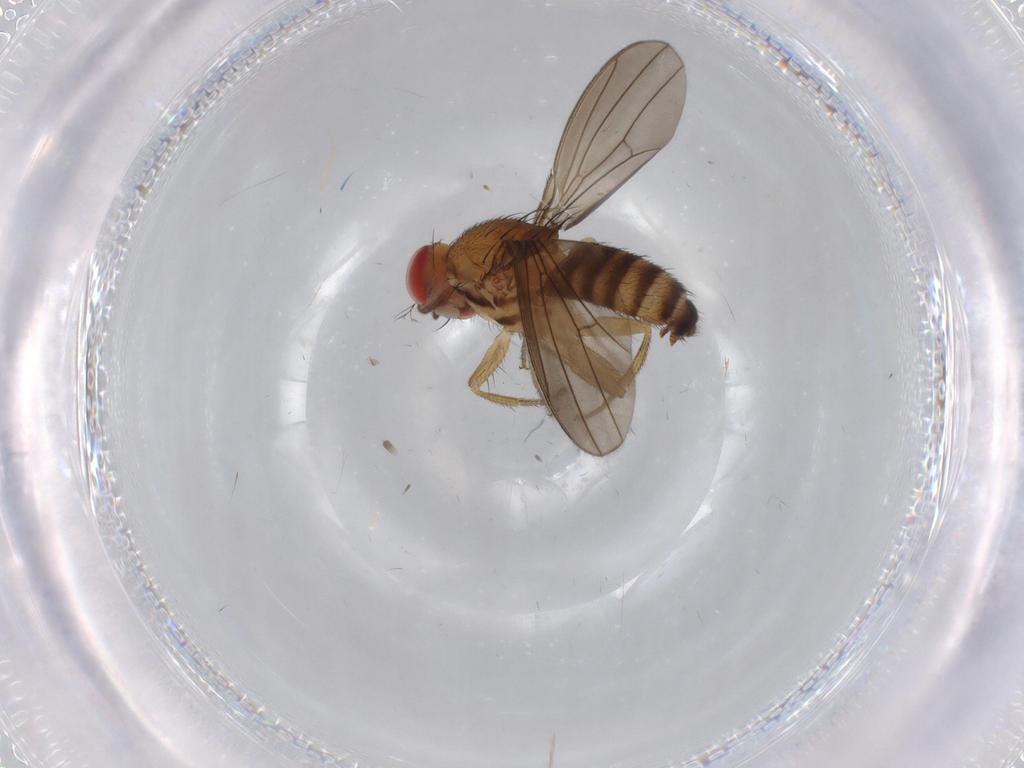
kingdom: Animalia
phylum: Arthropoda
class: Insecta
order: Diptera
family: Drosophilidae
